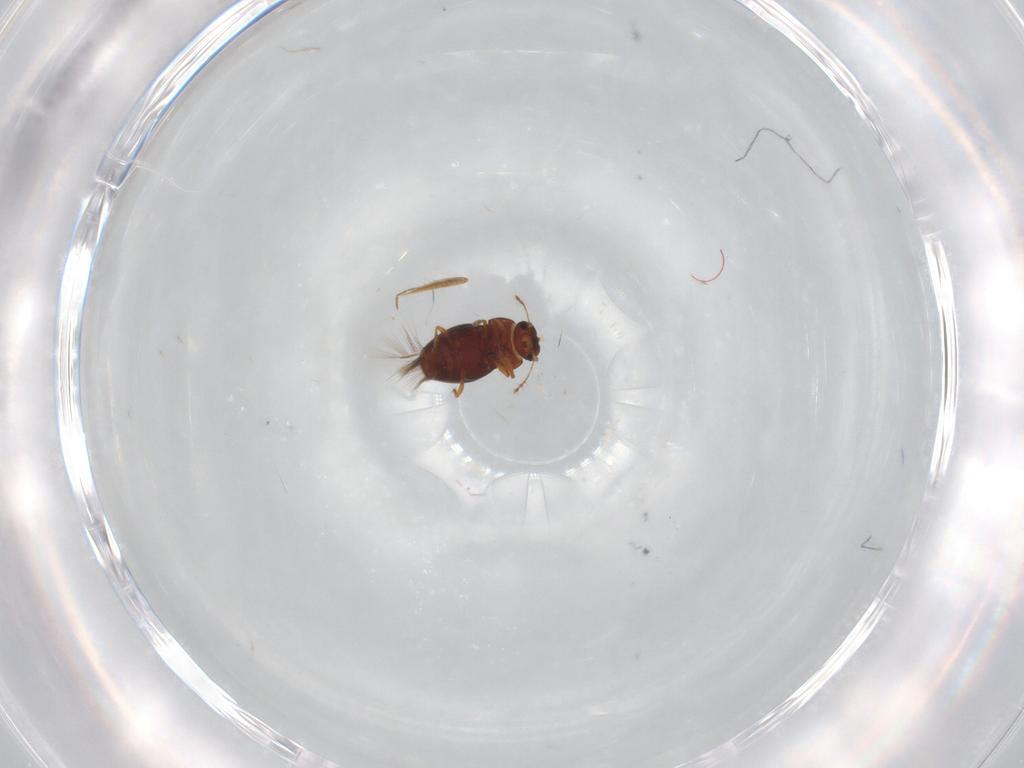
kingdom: Animalia
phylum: Arthropoda
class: Insecta
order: Coleoptera
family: Ptiliidae
